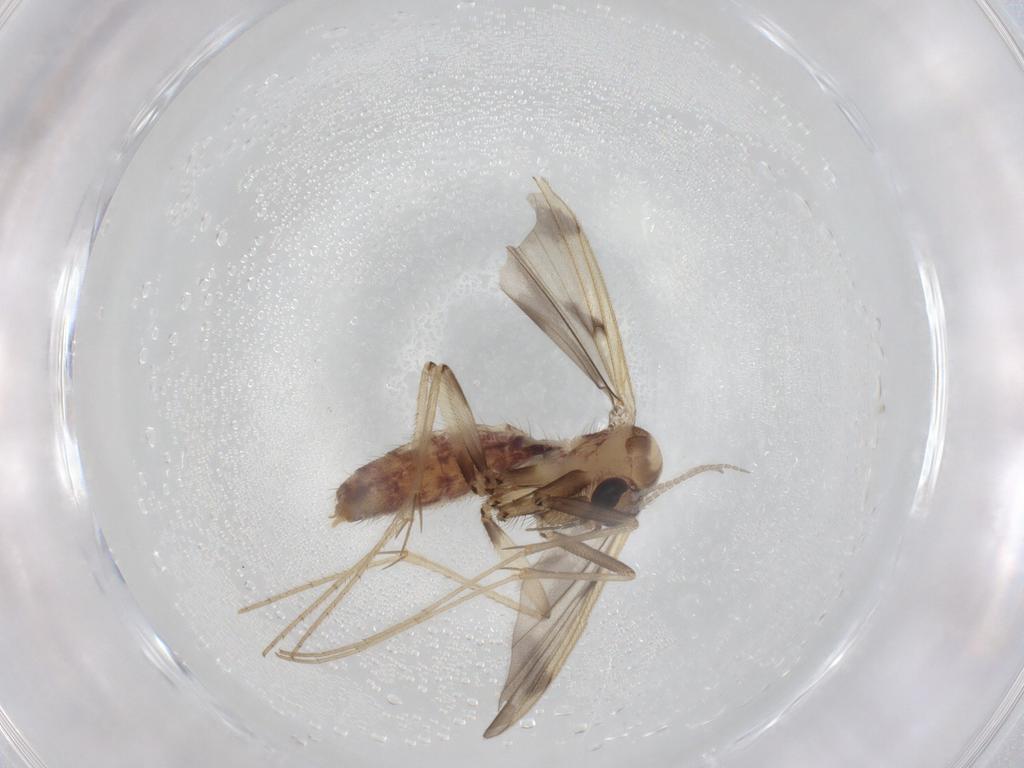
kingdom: Animalia
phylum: Arthropoda
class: Insecta
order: Diptera
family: Mycetophilidae
